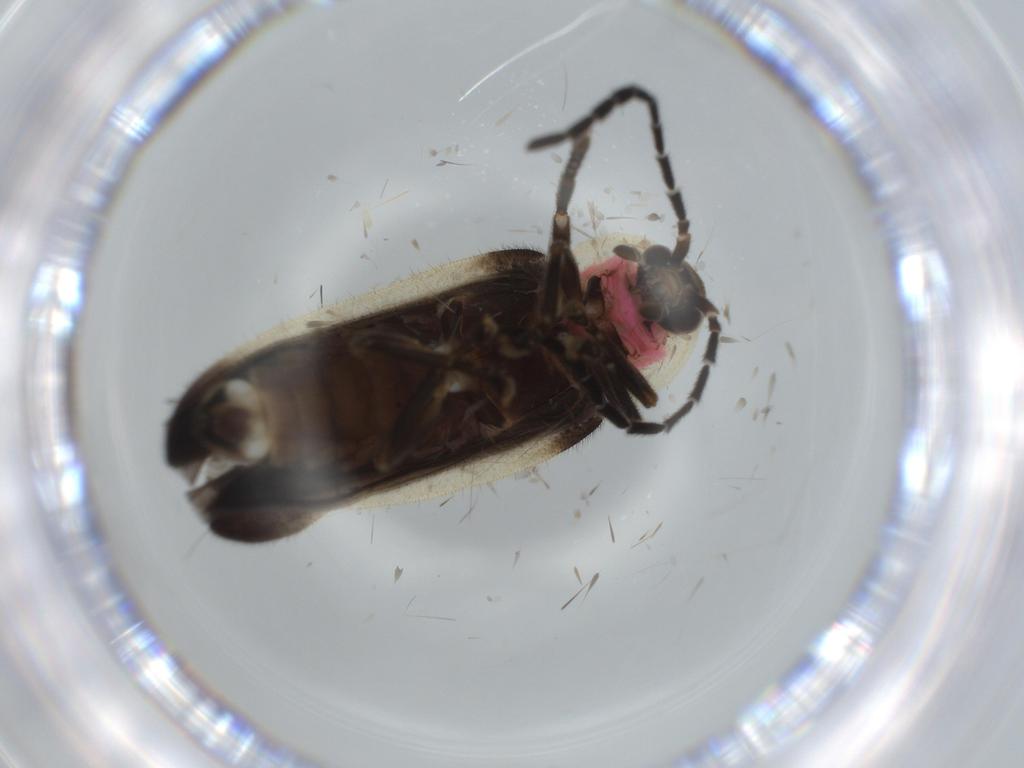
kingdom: Animalia
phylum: Arthropoda
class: Insecta
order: Coleoptera
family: Lampyridae
